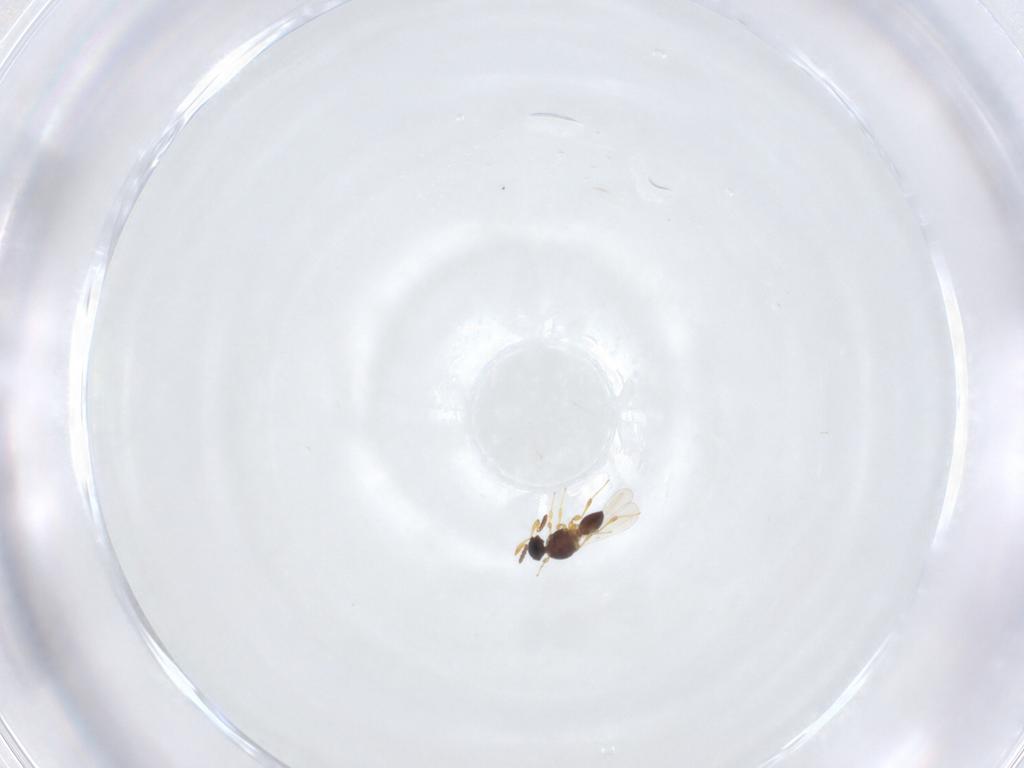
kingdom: Animalia
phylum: Arthropoda
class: Insecta
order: Hymenoptera
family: Platygastridae
